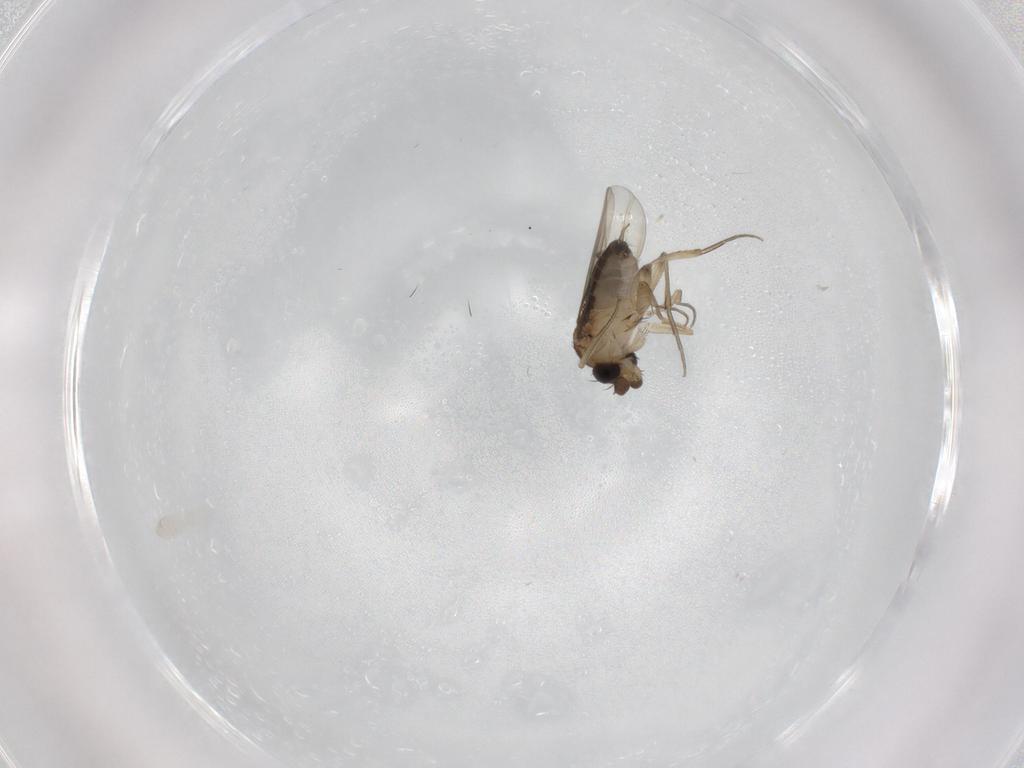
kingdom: Animalia
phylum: Arthropoda
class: Insecta
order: Diptera
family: Phoridae
